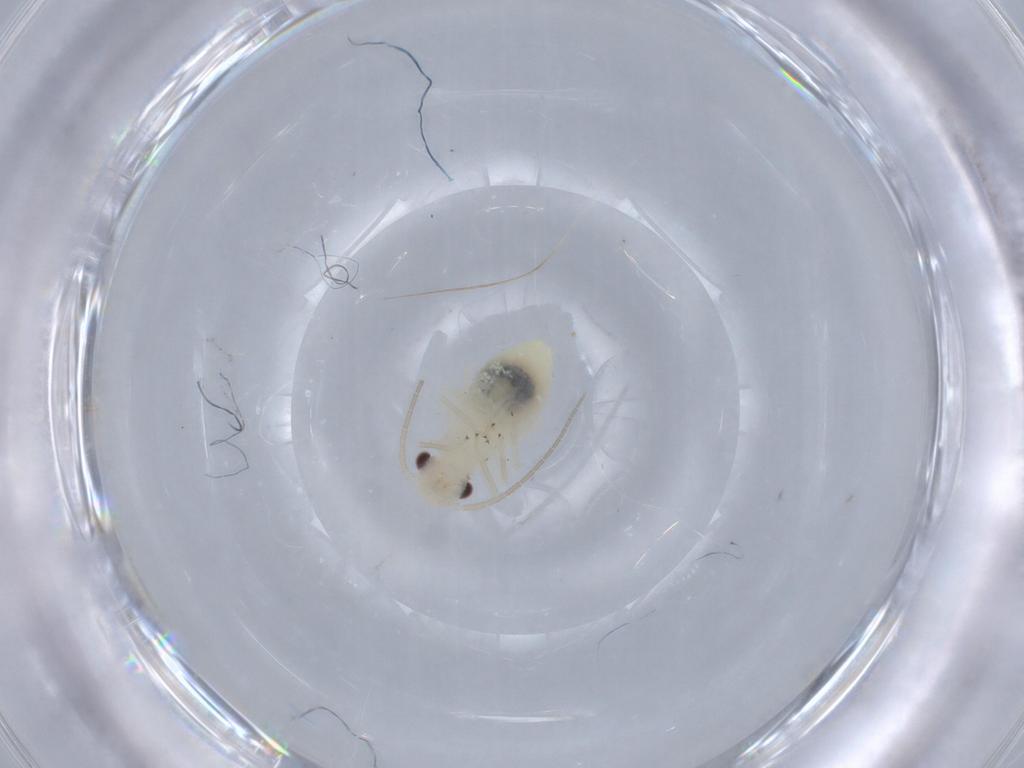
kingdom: Animalia
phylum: Arthropoda
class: Insecta
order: Psocodea
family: Caeciliusidae
